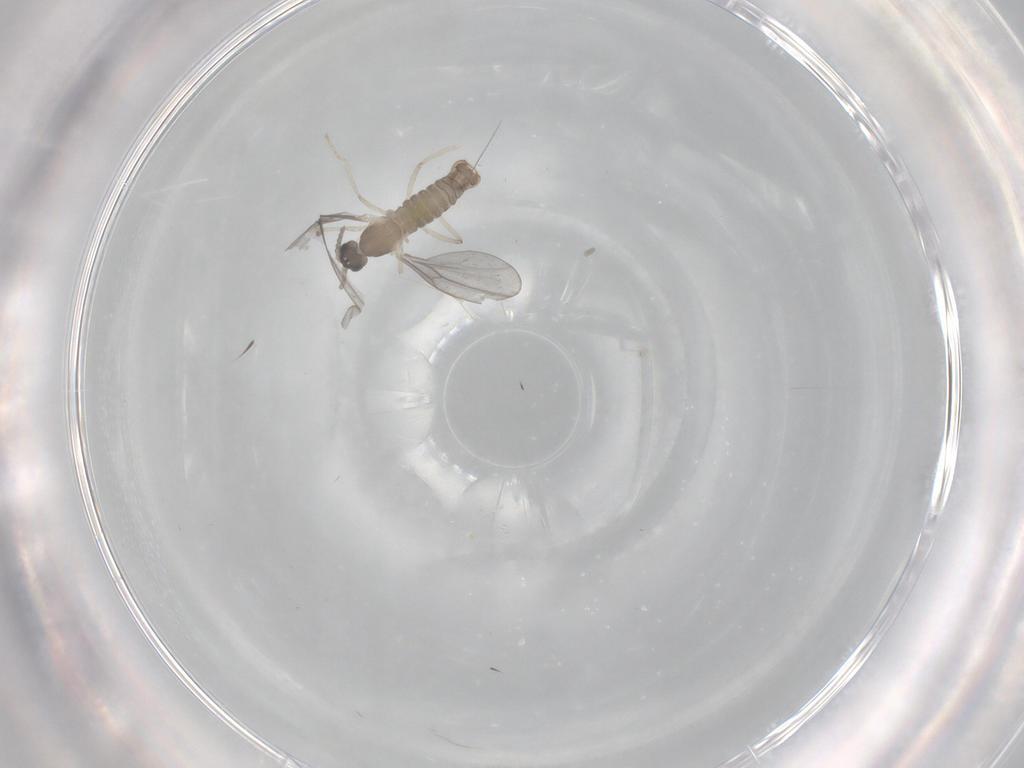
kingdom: Animalia
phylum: Arthropoda
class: Insecta
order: Diptera
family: Cecidomyiidae
